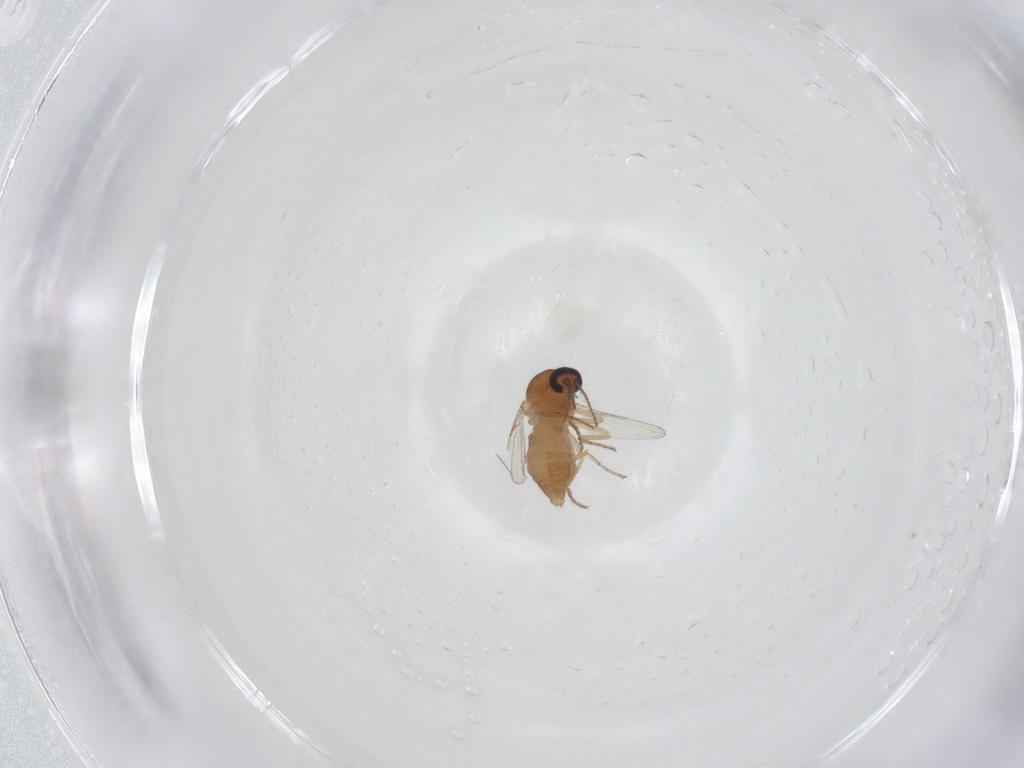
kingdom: Animalia
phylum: Arthropoda
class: Insecta
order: Diptera
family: Ceratopogonidae
